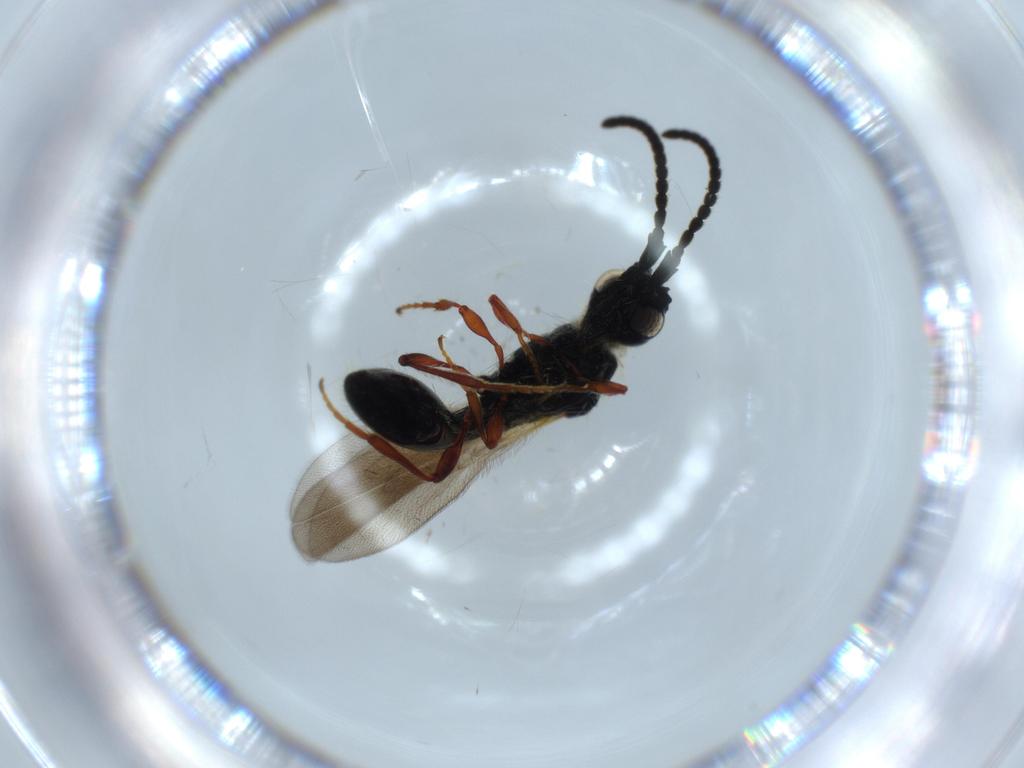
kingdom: Animalia
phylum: Arthropoda
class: Insecta
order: Hymenoptera
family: Diapriidae
